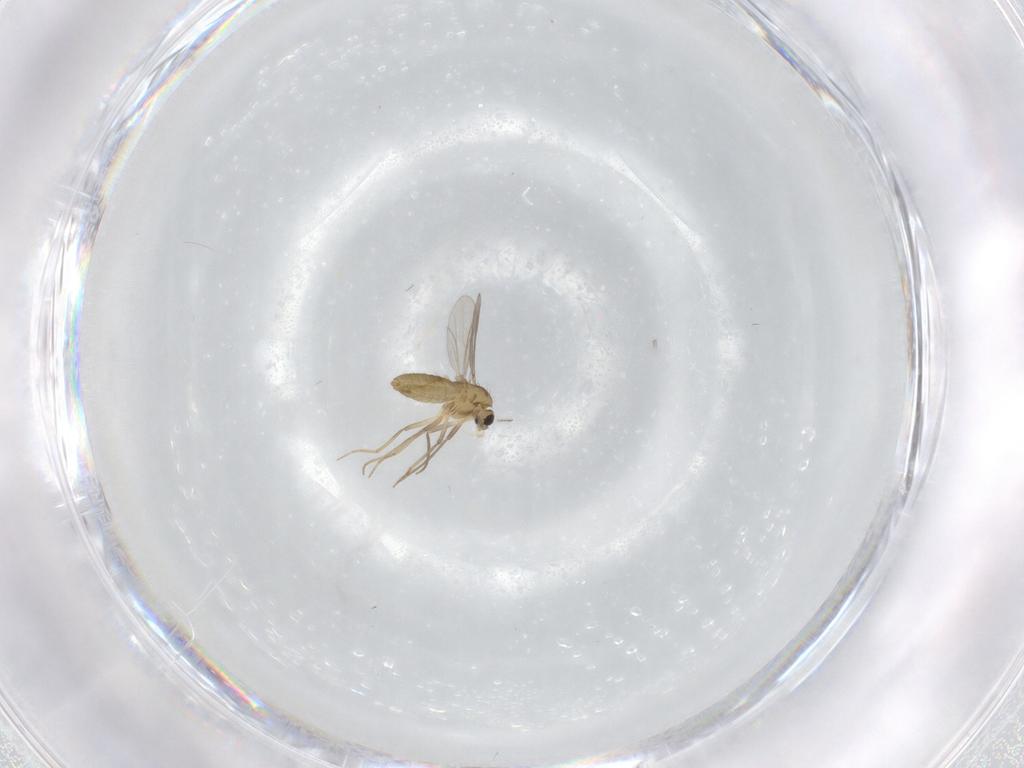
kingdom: Animalia
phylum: Arthropoda
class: Insecta
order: Diptera
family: Chironomidae
